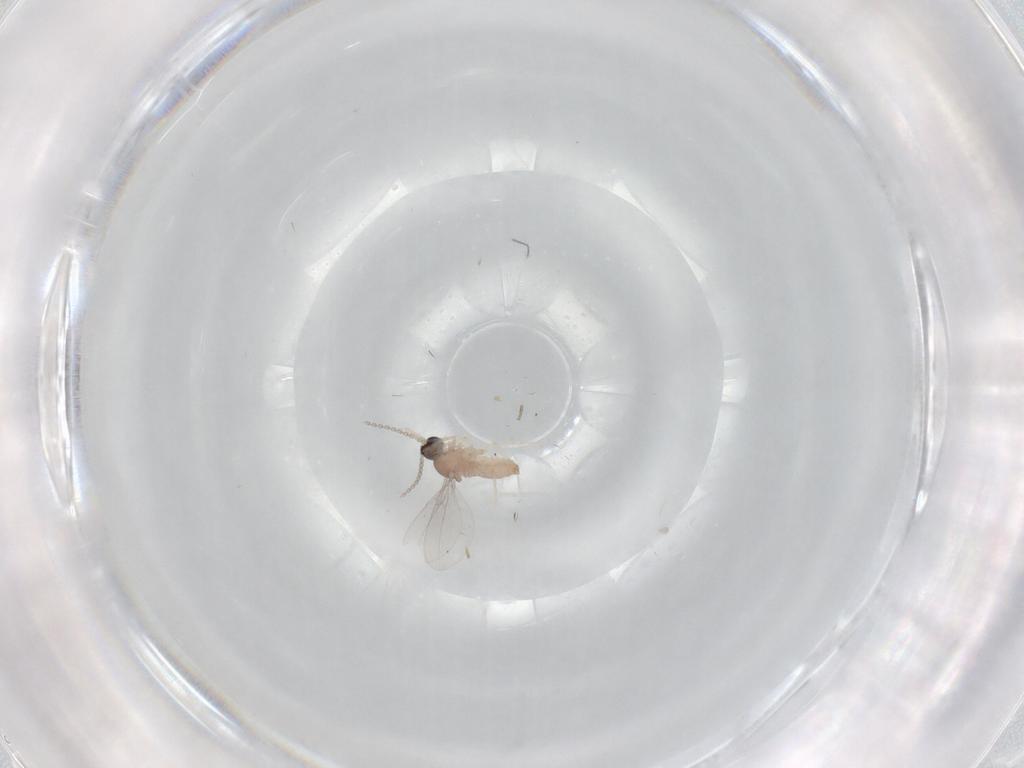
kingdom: Animalia
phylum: Arthropoda
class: Insecta
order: Diptera
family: Cecidomyiidae
